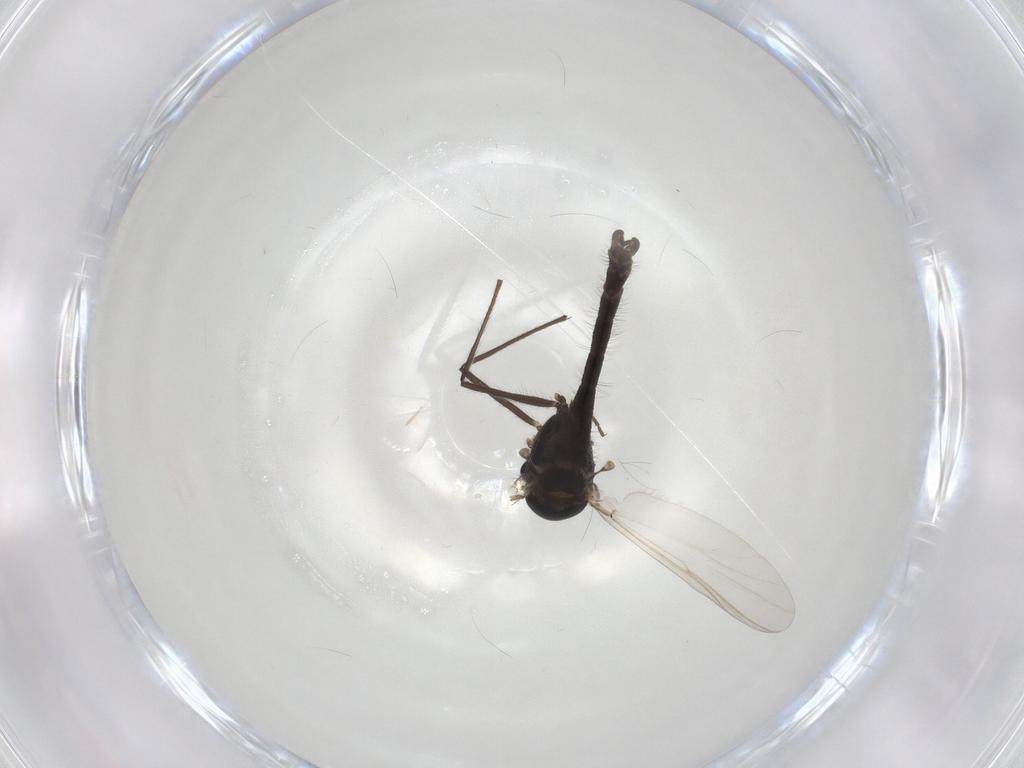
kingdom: Animalia
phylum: Arthropoda
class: Insecta
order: Diptera
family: Chironomidae
